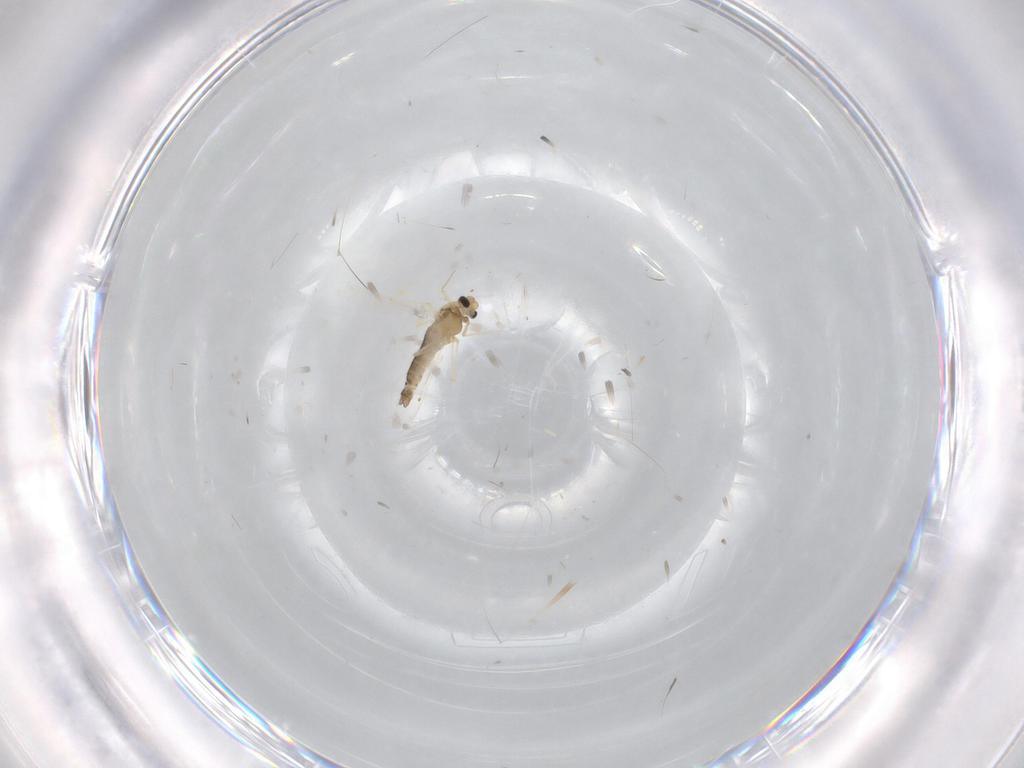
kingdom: Animalia
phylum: Arthropoda
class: Insecta
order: Diptera
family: Chironomidae
